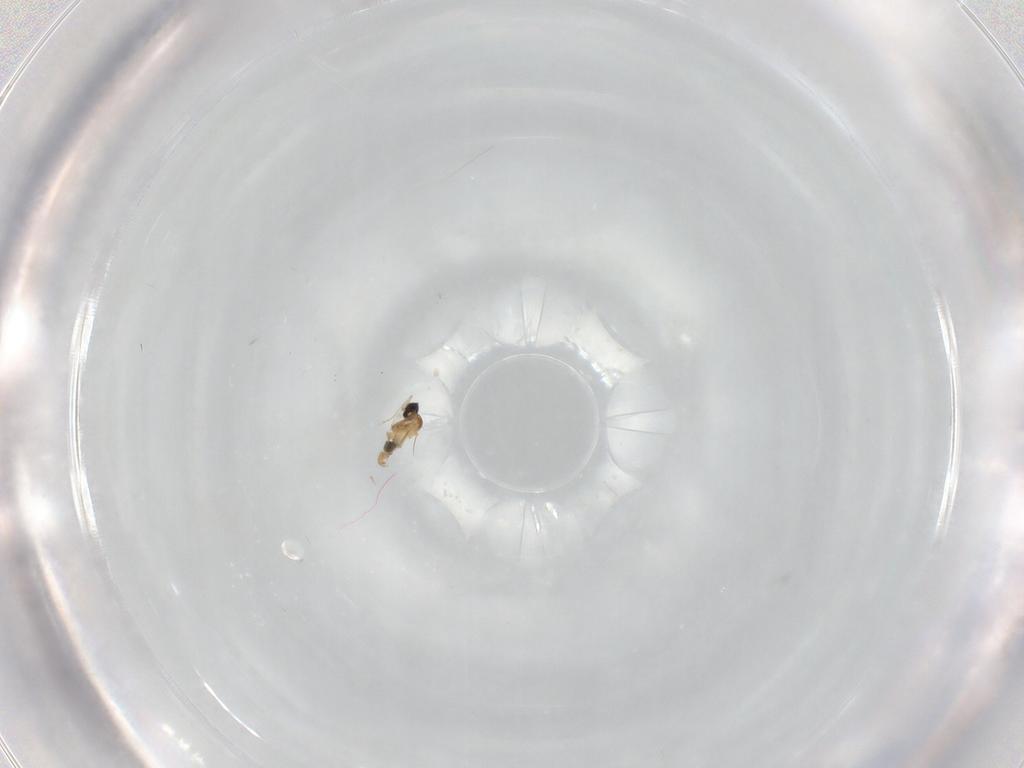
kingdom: Animalia
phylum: Arthropoda
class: Insecta
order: Diptera
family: Cecidomyiidae
